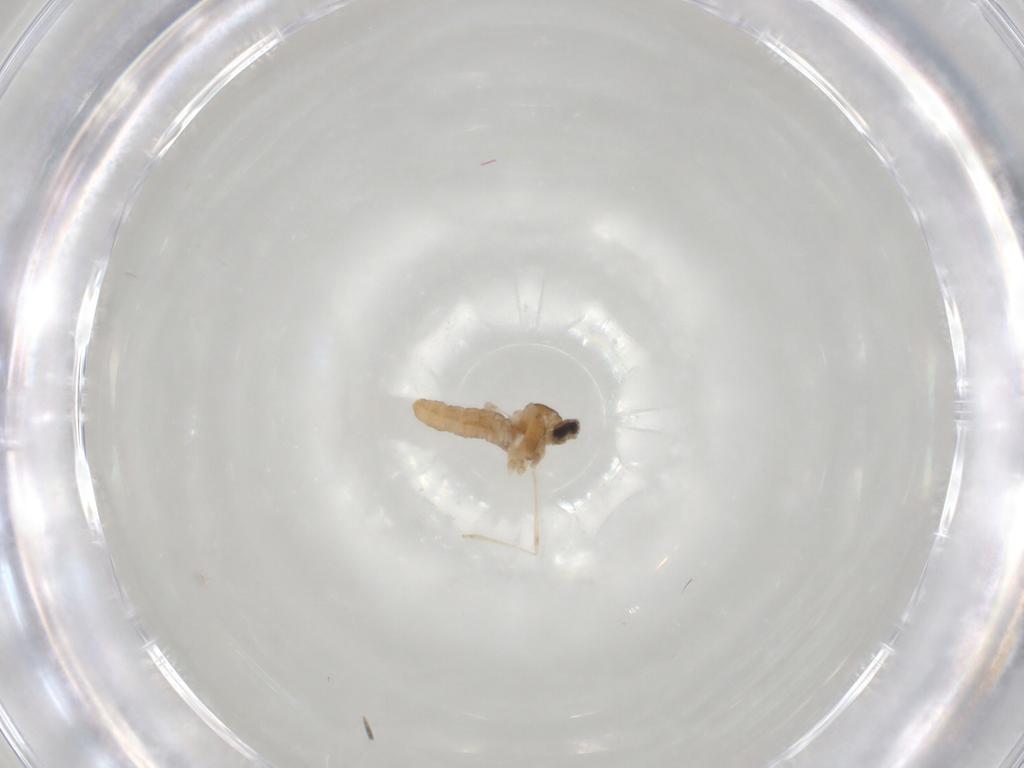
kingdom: Animalia
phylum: Arthropoda
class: Insecta
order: Diptera
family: Cecidomyiidae
